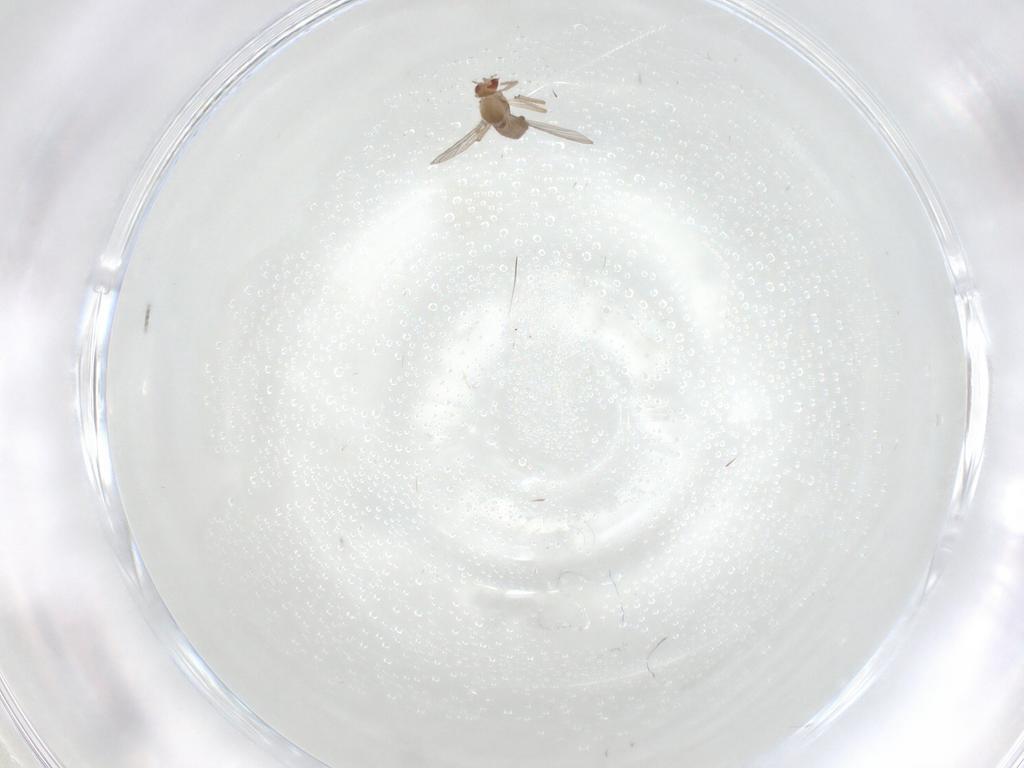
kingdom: Animalia
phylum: Arthropoda
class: Insecta
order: Diptera
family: Chironomidae
